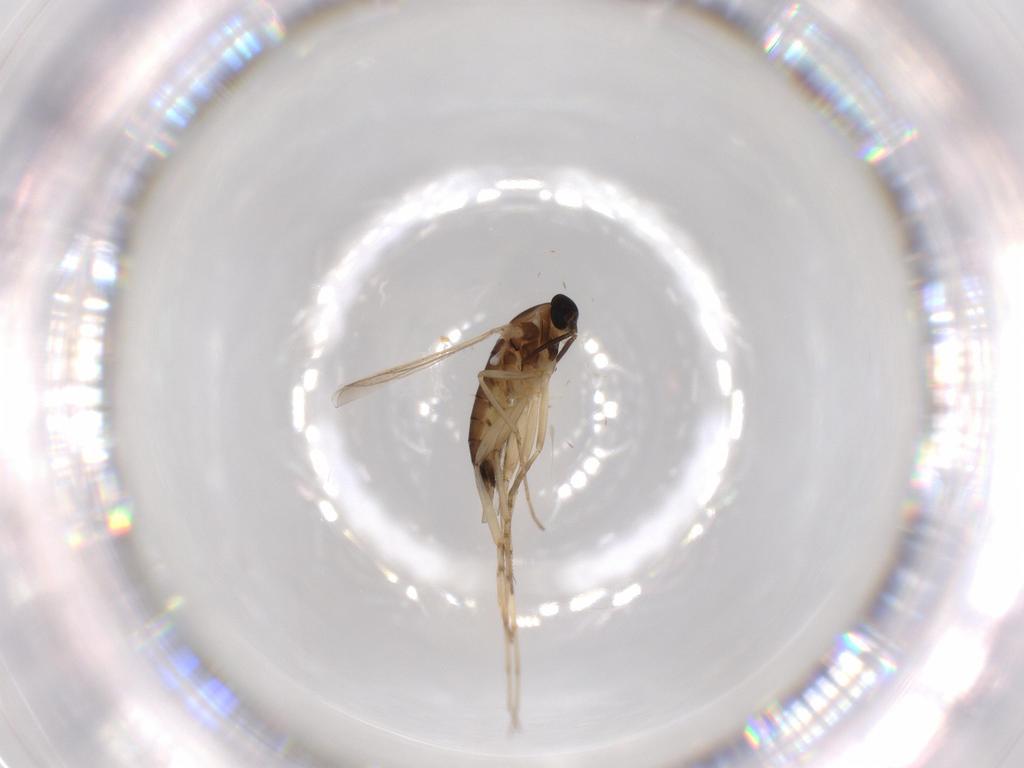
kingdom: Animalia
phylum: Arthropoda
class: Insecta
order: Diptera
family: Cecidomyiidae
